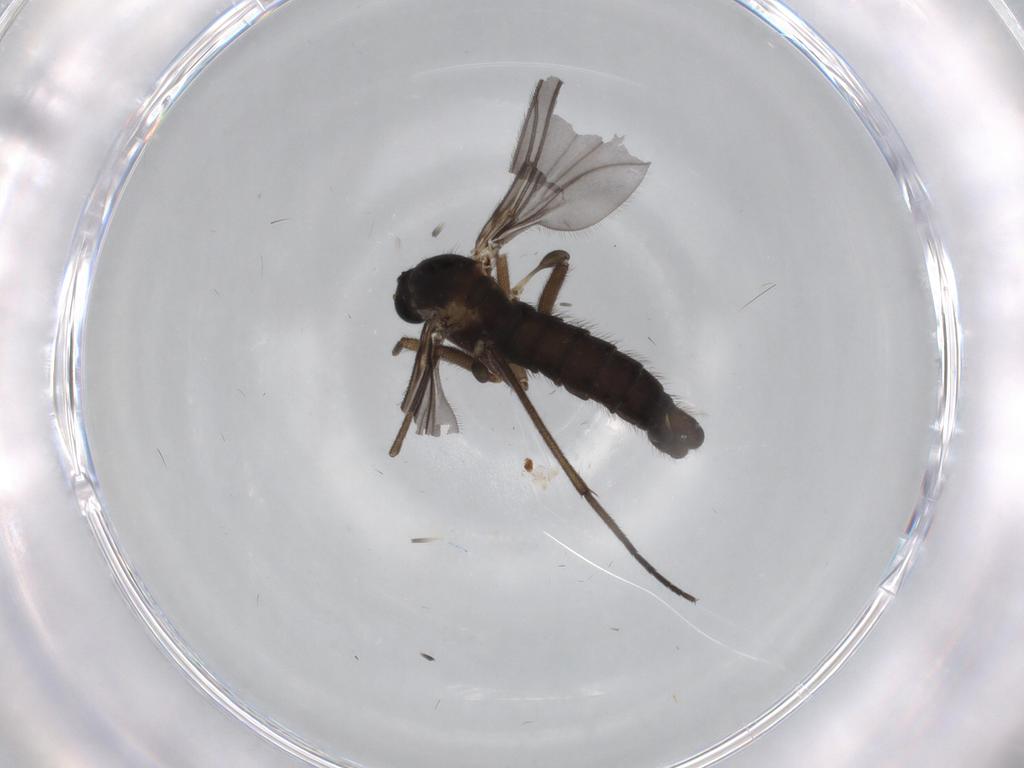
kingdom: Animalia
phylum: Arthropoda
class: Insecta
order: Diptera
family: Sciaridae
